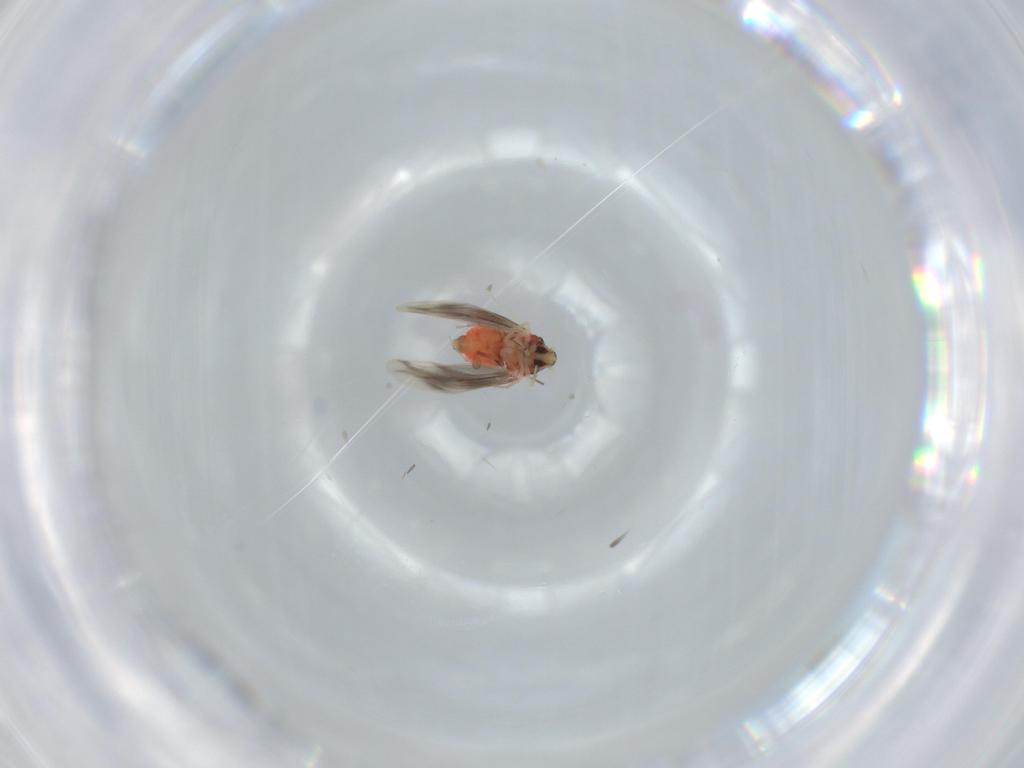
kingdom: Animalia
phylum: Arthropoda
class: Insecta
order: Hemiptera
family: Aleyrodidae
